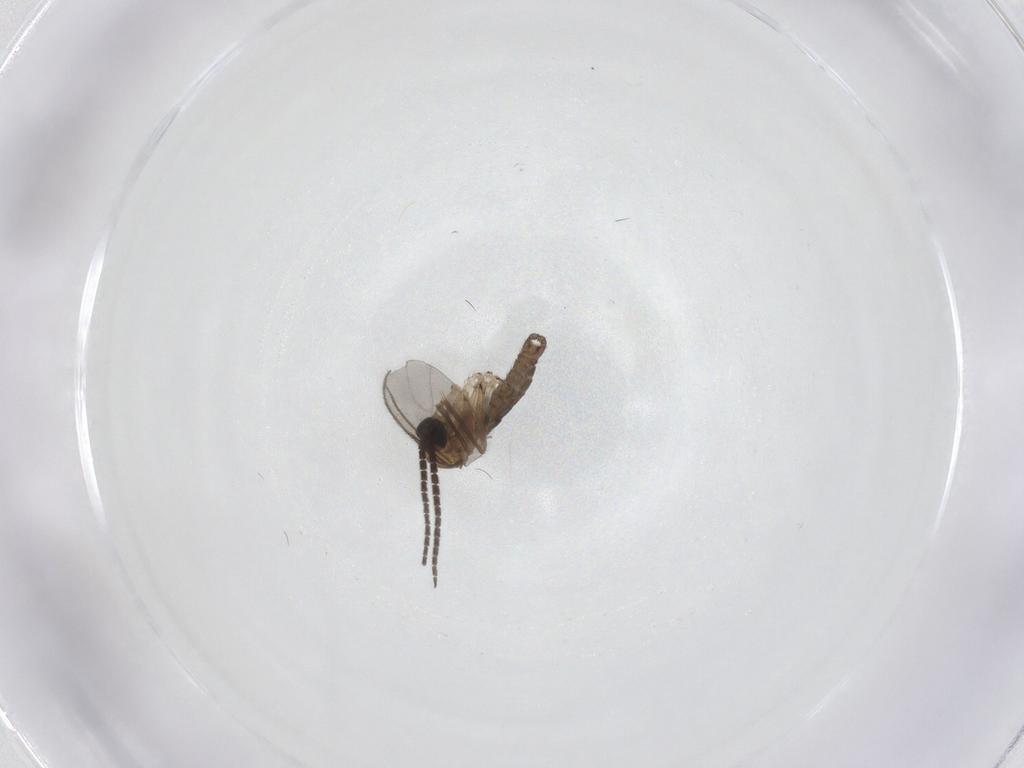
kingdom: Animalia
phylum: Arthropoda
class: Insecta
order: Diptera
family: Sciaridae
